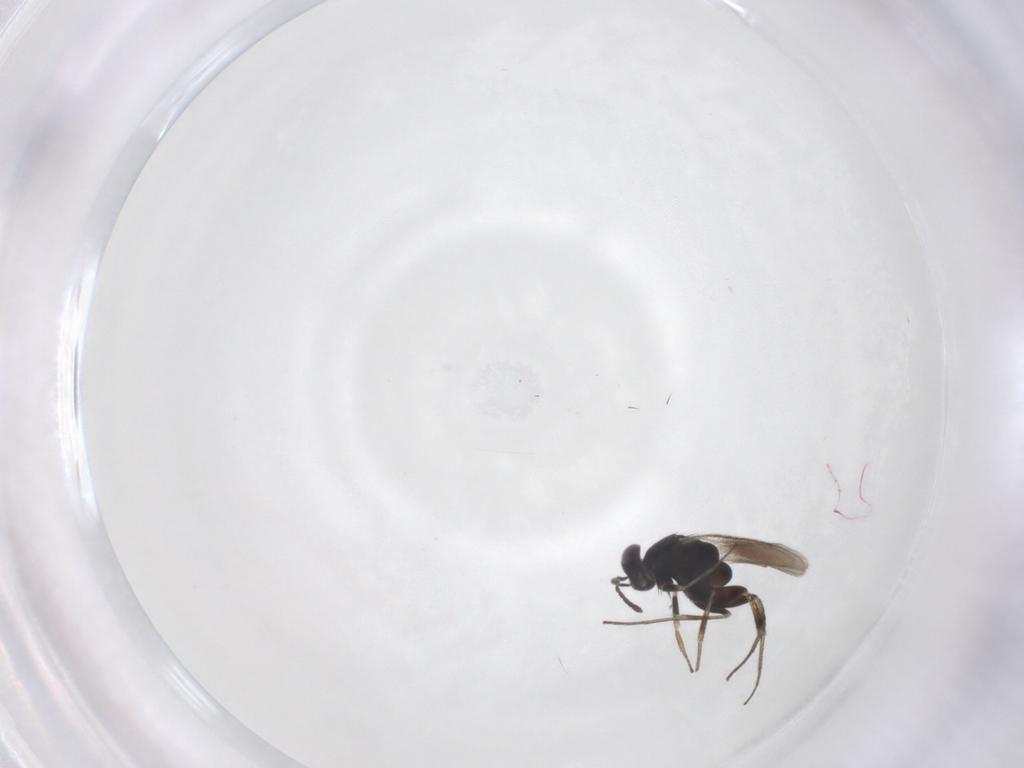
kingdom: Animalia
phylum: Arthropoda
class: Insecta
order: Hymenoptera
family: Eulophidae
